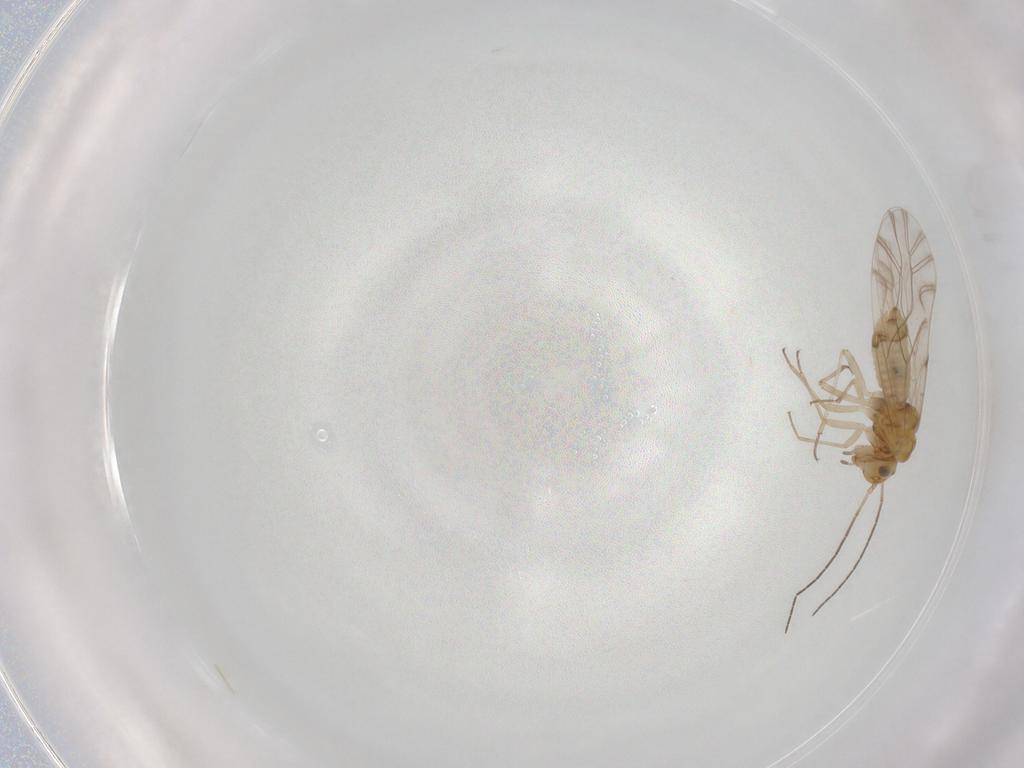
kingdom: Animalia
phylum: Arthropoda
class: Insecta
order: Psocodea
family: Lachesillidae
